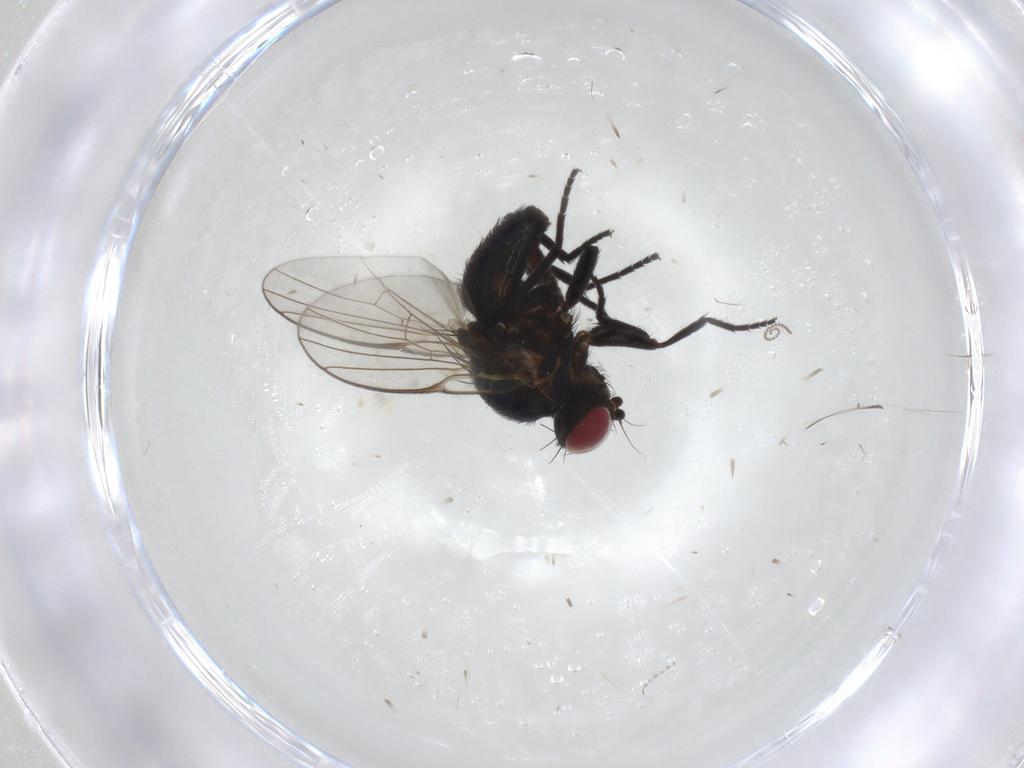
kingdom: Animalia
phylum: Arthropoda
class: Insecta
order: Diptera
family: Agromyzidae
